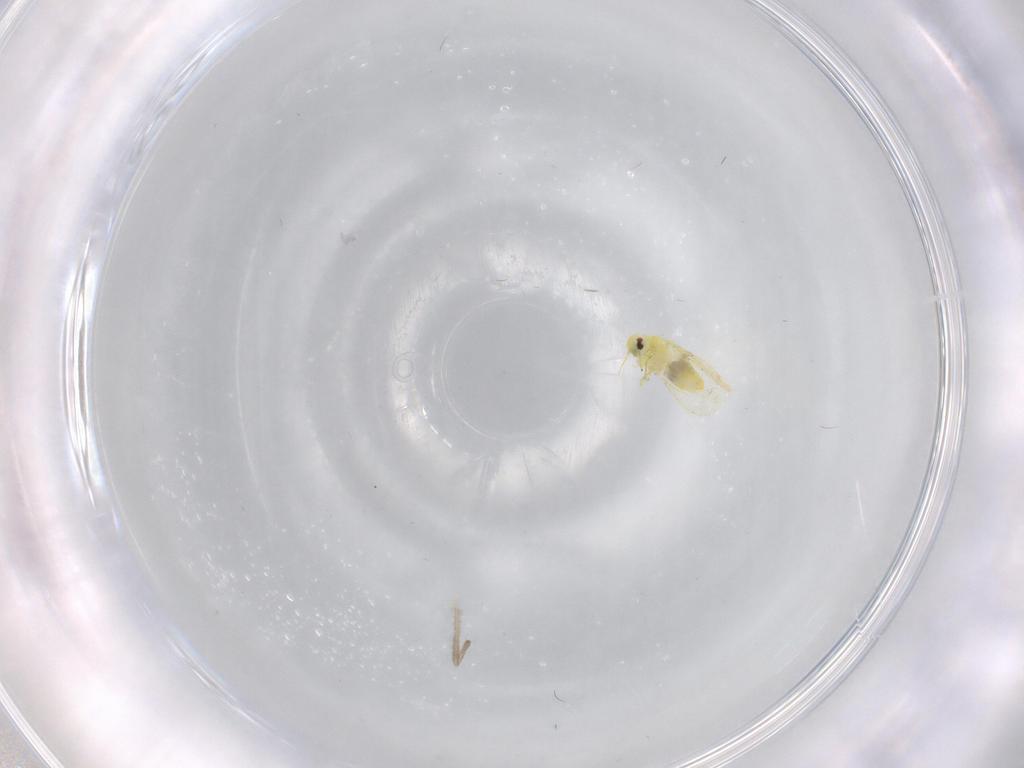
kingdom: Animalia
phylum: Arthropoda
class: Insecta
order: Hemiptera
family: Aleyrodidae
